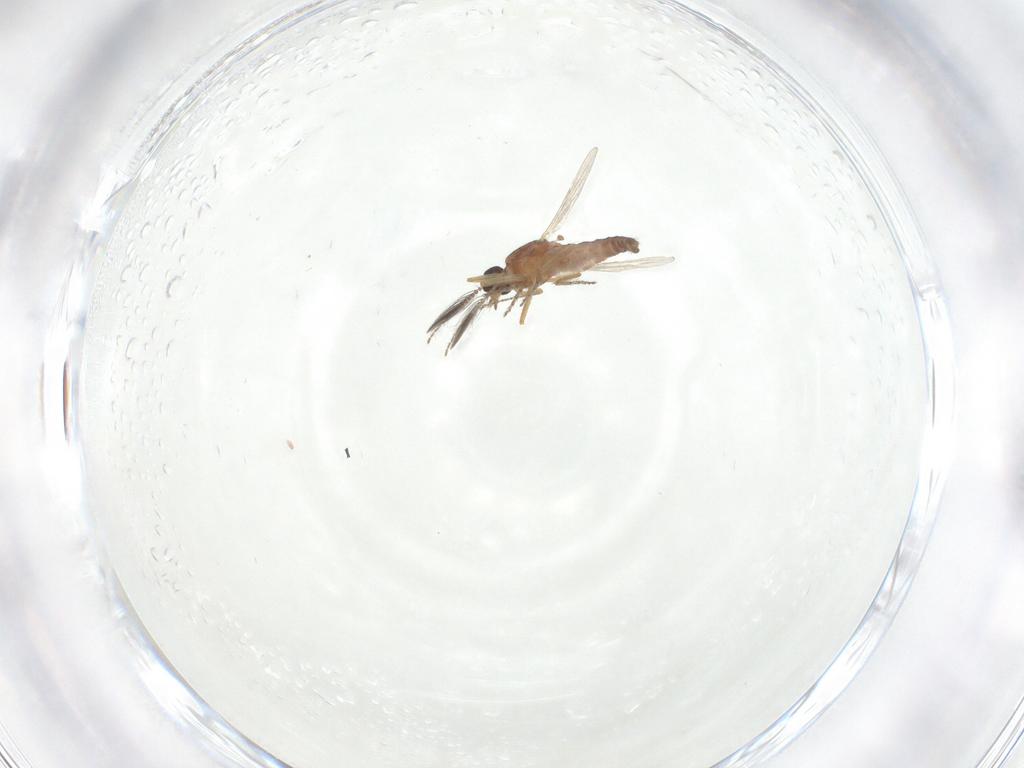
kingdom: Animalia
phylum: Arthropoda
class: Insecta
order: Diptera
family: Ceratopogonidae
